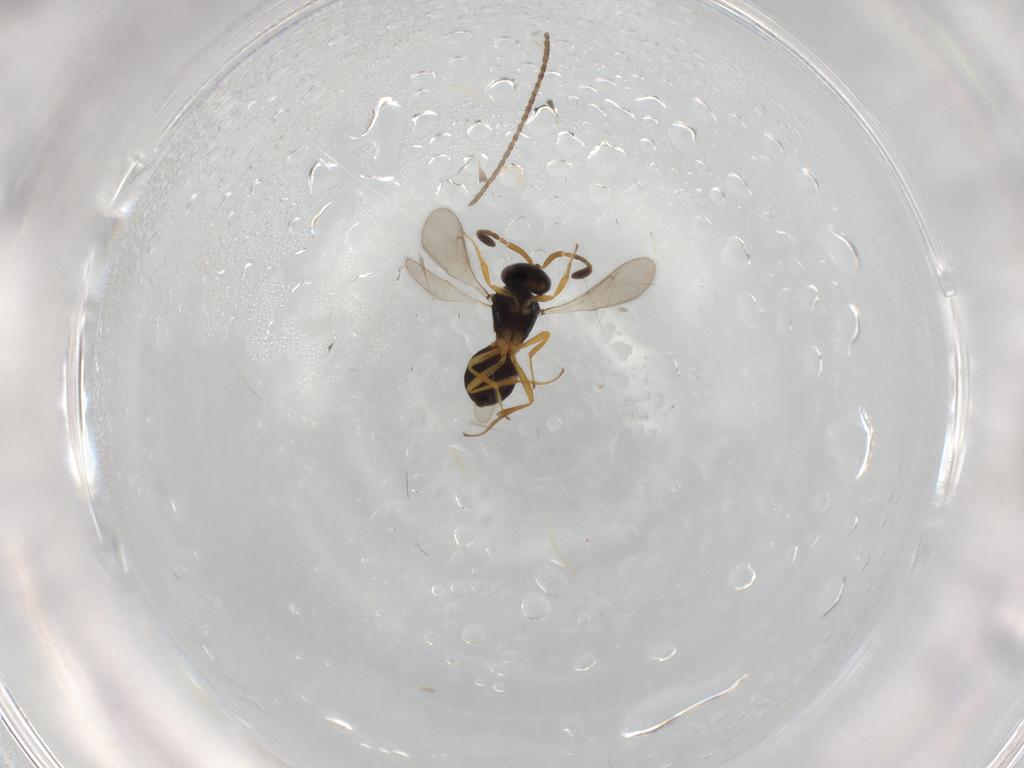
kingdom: Animalia
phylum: Arthropoda
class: Insecta
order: Hymenoptera
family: Scelionidae
